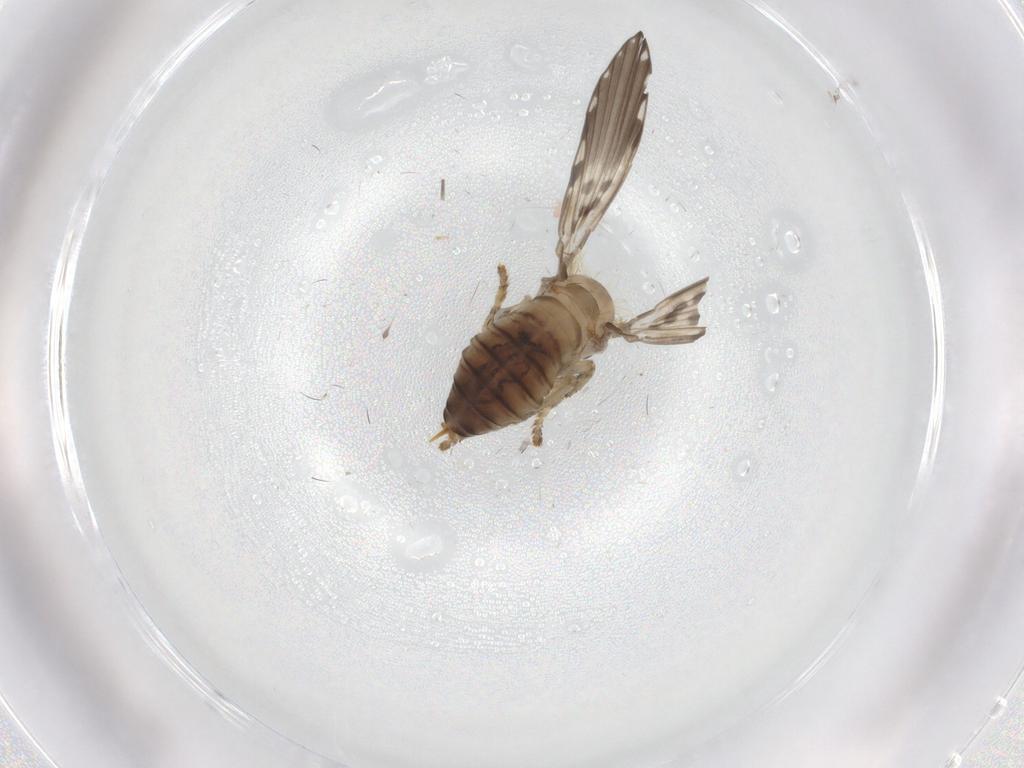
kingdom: Animalia
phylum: Arthropoda
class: Insecta
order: Diptera
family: Psychodidae
